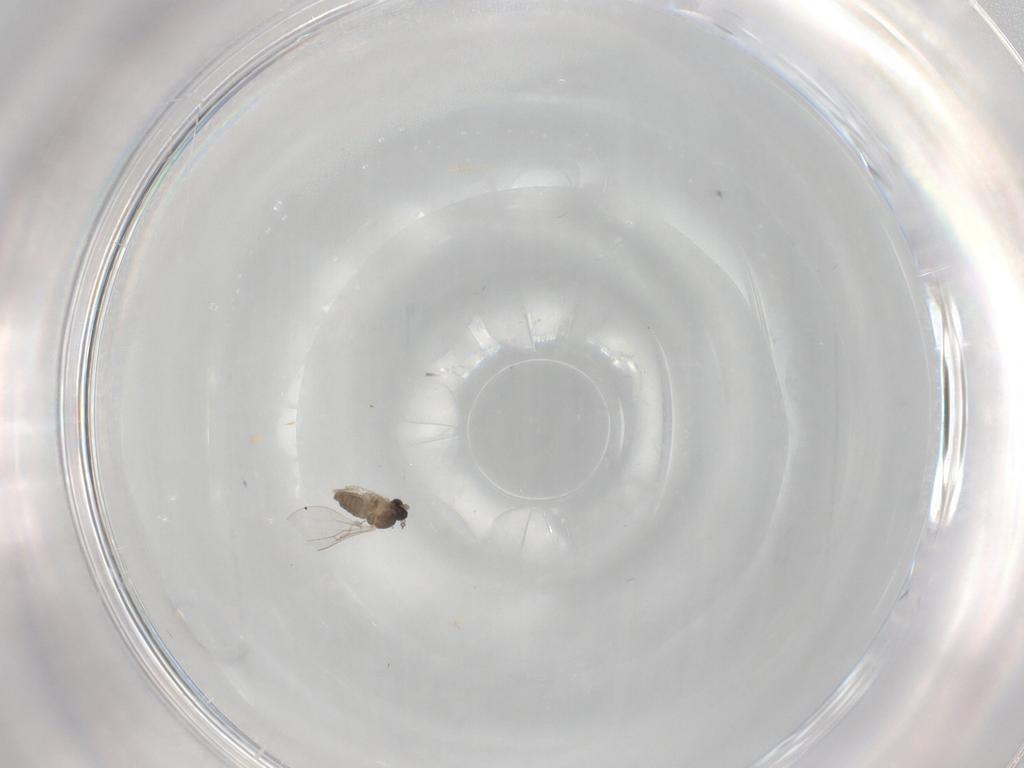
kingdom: Animalia
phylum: Arthropoda
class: Insecta
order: Diptera
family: Cecidomyiidae
